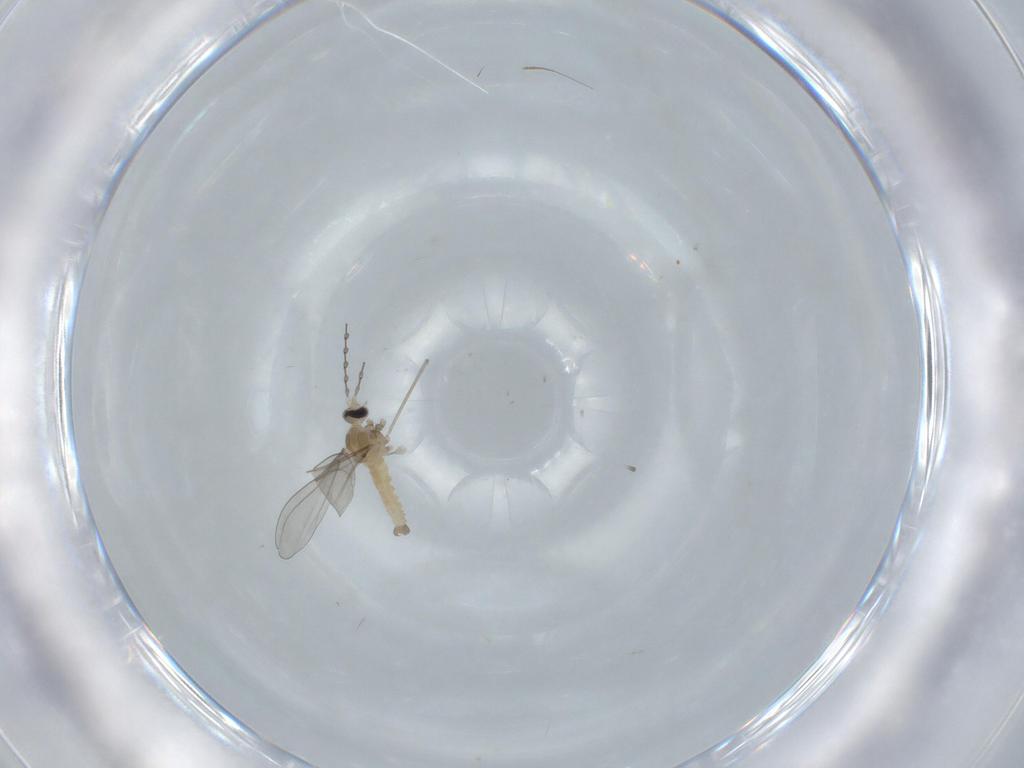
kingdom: Animalia
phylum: Arthropoda
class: Insecta
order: Diptera
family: Cecidomyiidae
